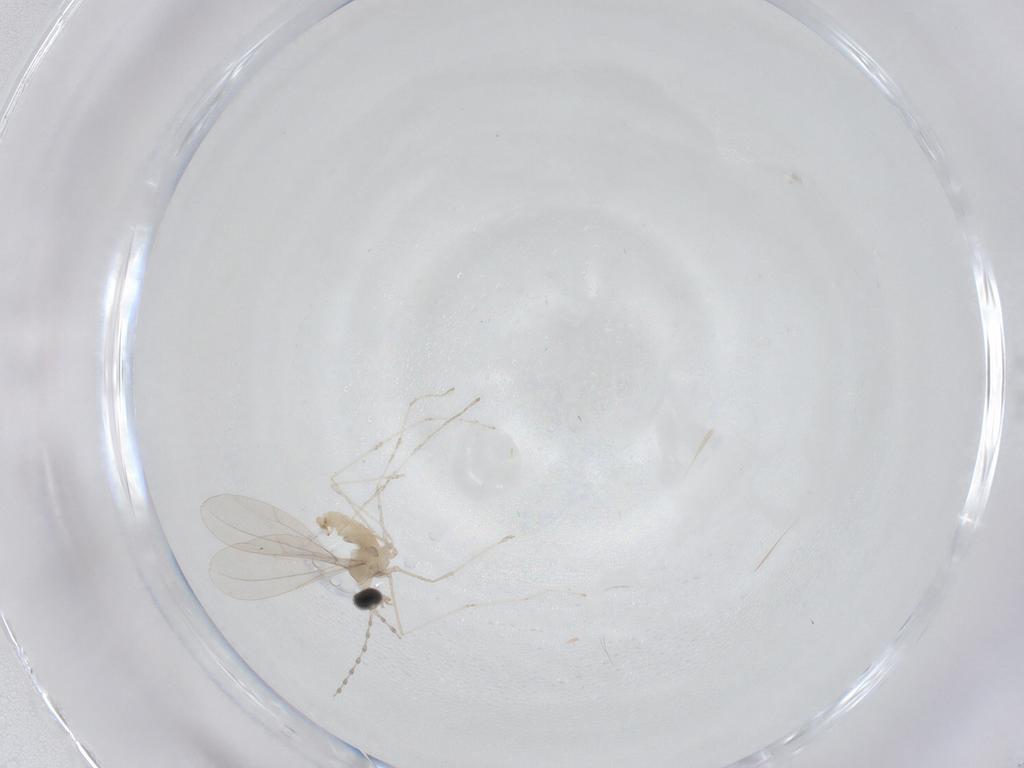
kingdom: Animalia
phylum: Arthropoda
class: Insecta
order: Diptera
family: Cecidomyiidae
